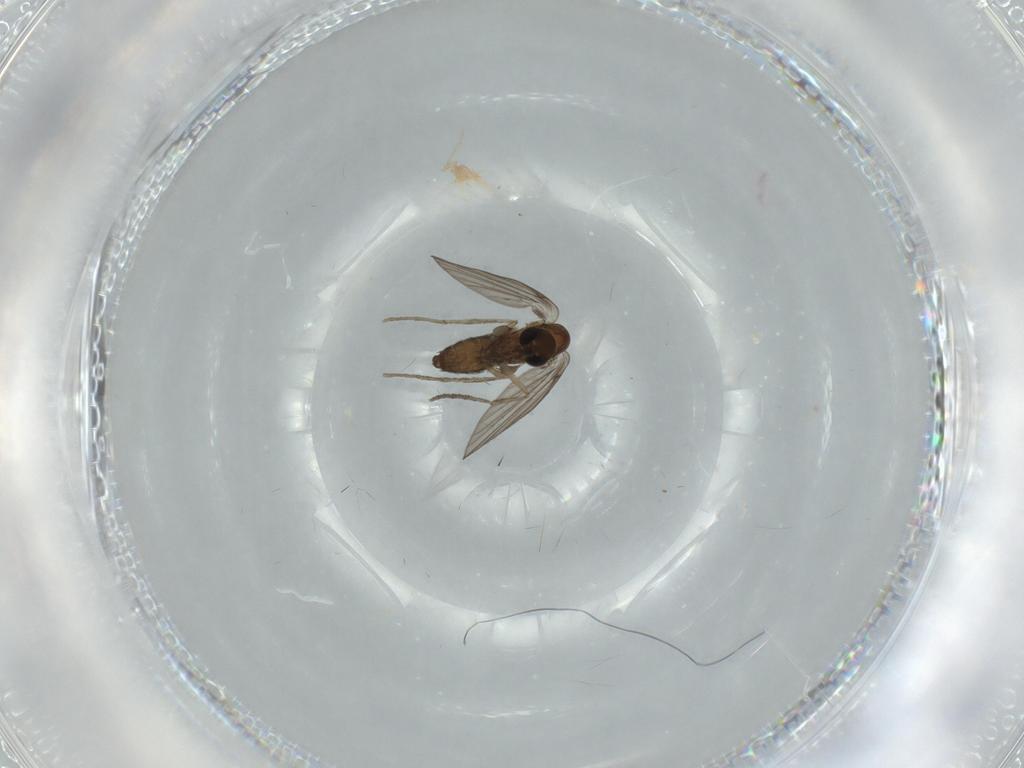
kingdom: Animalia
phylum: Arthropoda
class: Insecta
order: Diptera
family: Psychodidae
